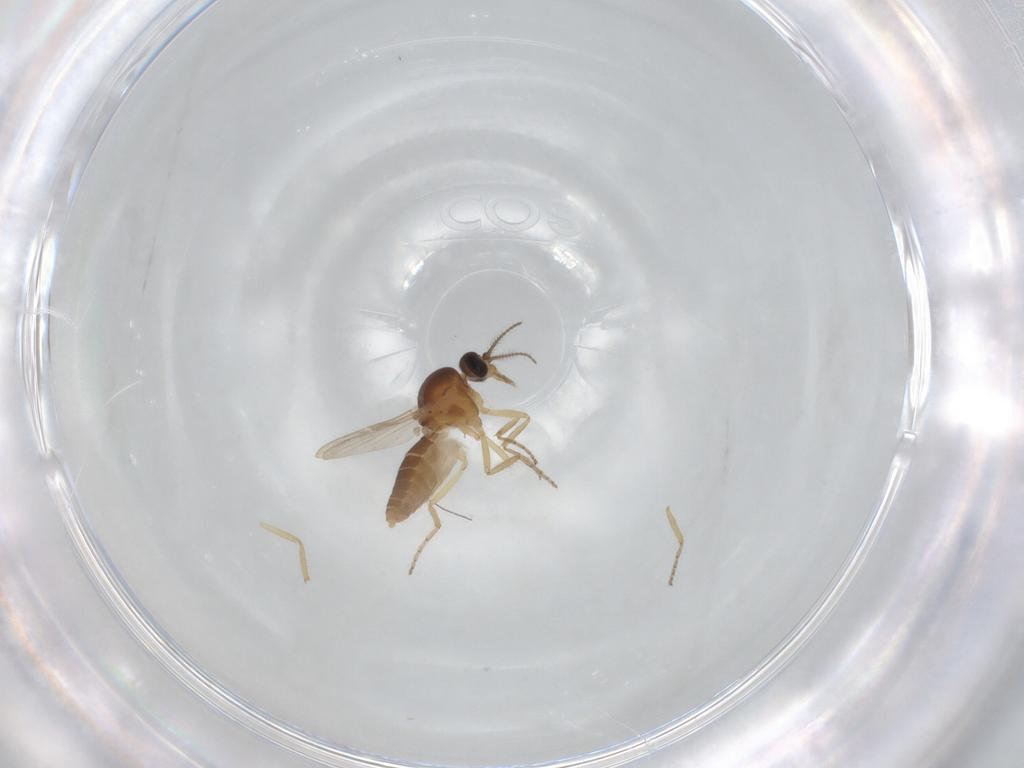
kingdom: Animalia
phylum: Arthropoda
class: Insecta
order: Diptera
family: Ceratopogonidae
